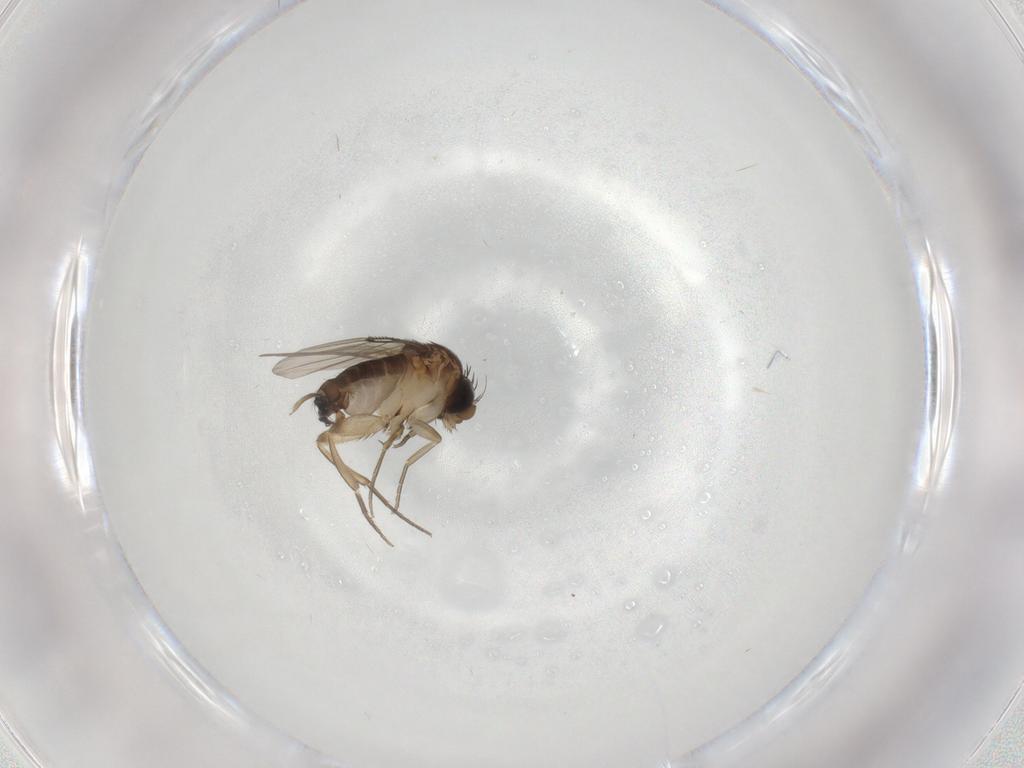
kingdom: Animalia
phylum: Arthropoda
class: Insecta
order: Diptera
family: Phoridae
